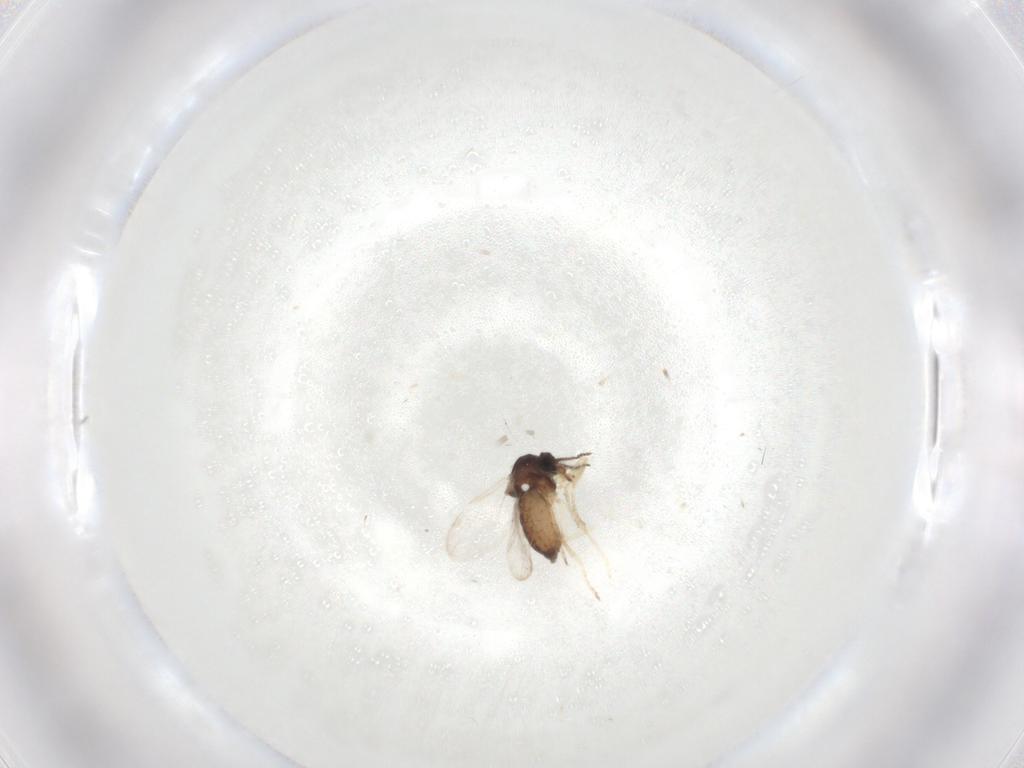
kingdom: Animalia
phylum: Arthropoda
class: Insecta
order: Diptera
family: Ceratopogonidae
